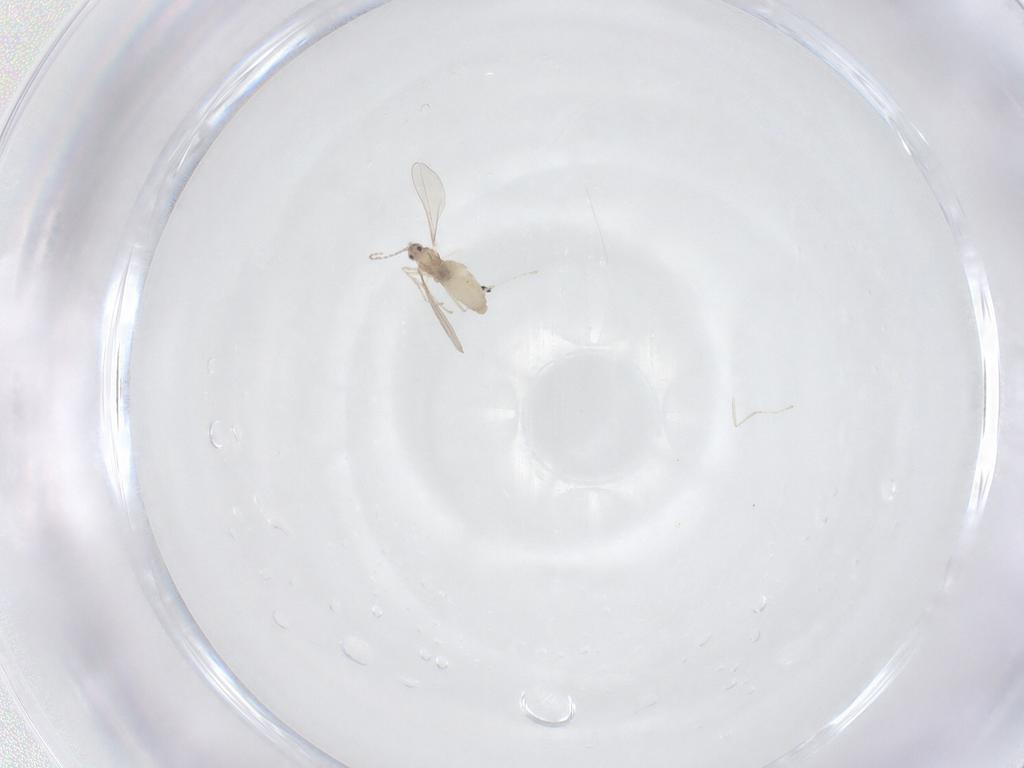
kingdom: Animalia
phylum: Arthropoda
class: Insecta
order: Diptera
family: Cecidomyiidae
